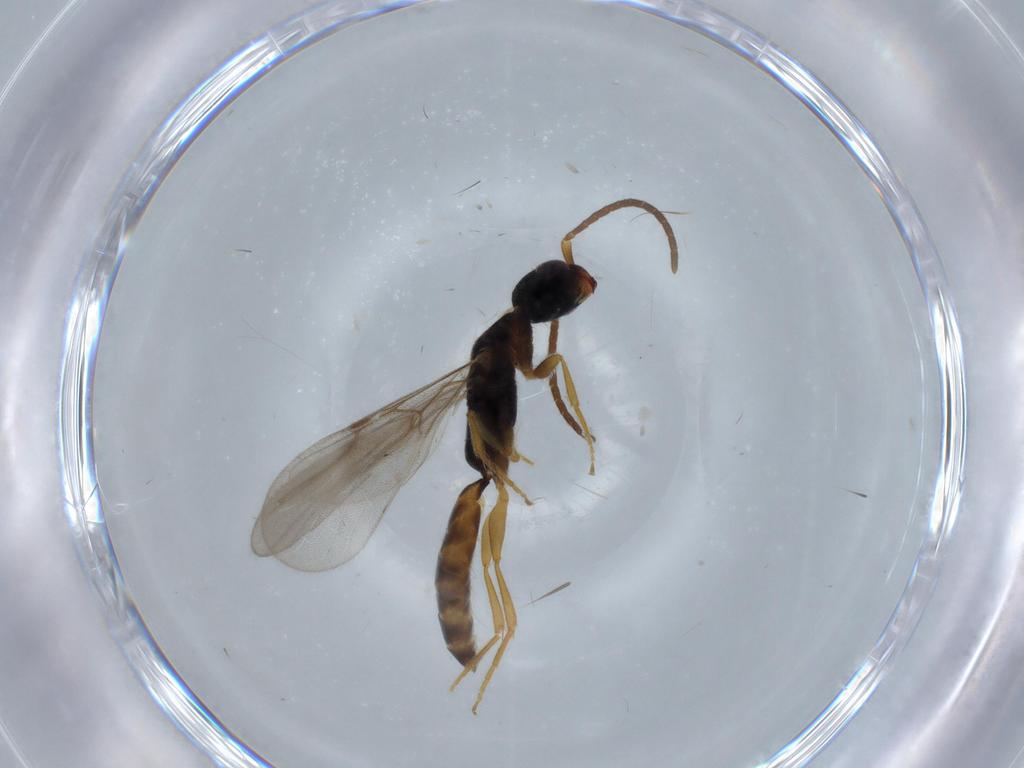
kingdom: Animalia
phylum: Arthropoda
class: Insecta
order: Hymenoptera
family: Bethylidae
